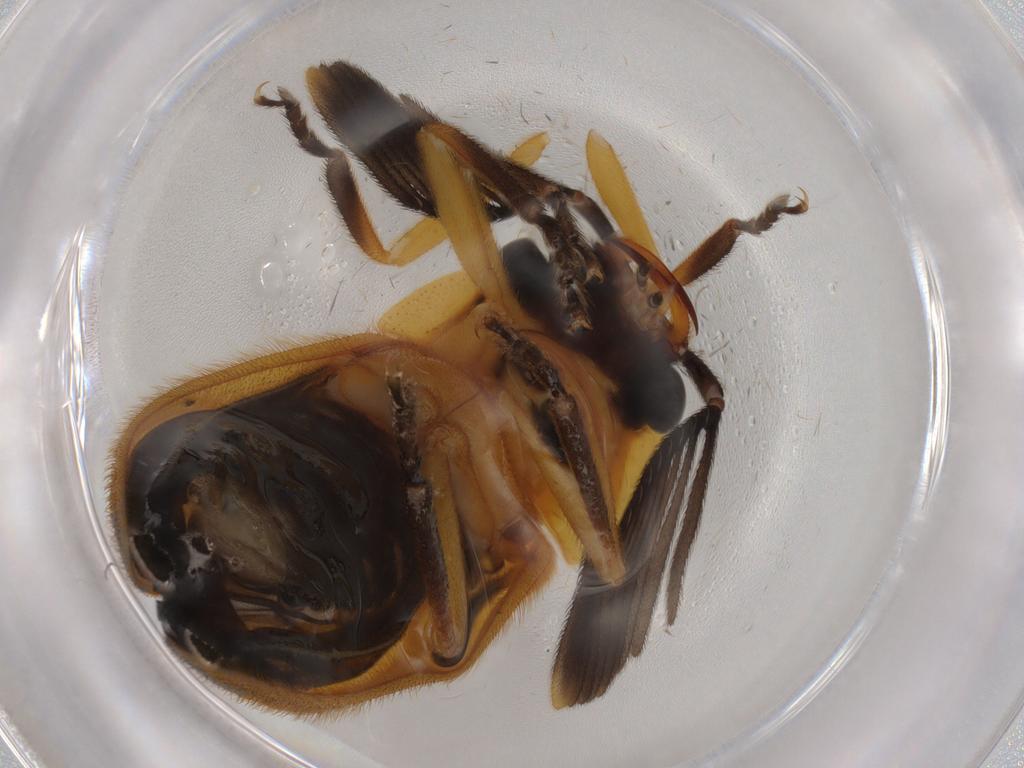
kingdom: Animalia
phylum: Arthropoda
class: Insecta
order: Coleoptera
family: Lampyridae
